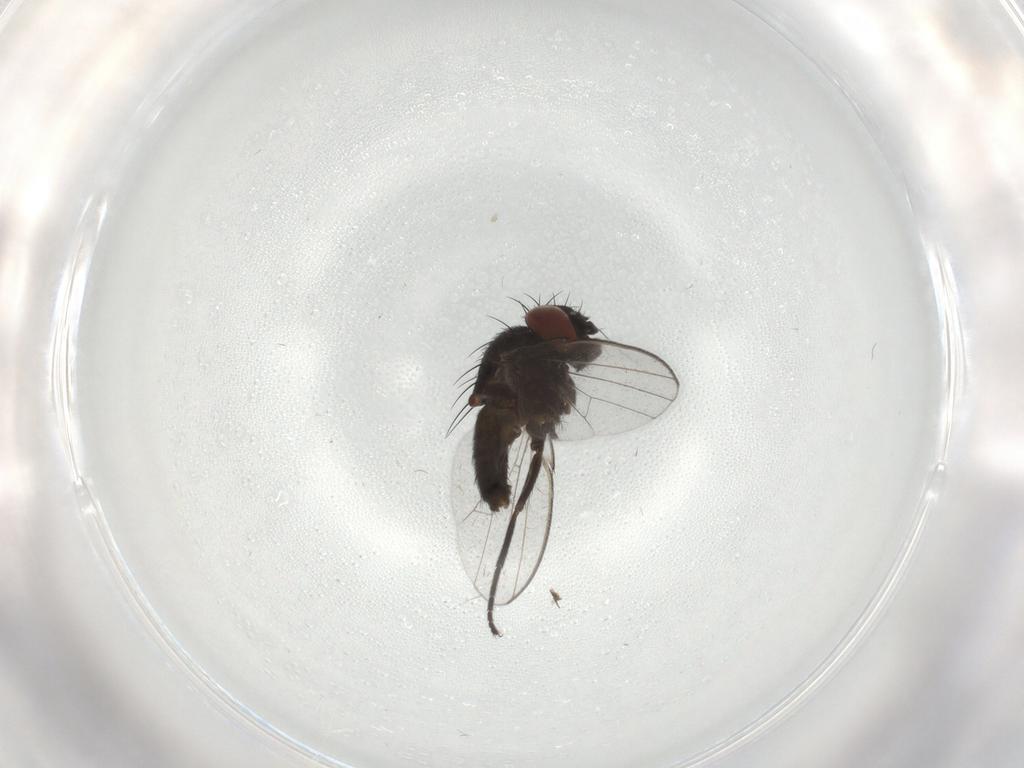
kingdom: Animalia
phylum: Arthropoda
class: Insecta
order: Diptera
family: Milichiidae
